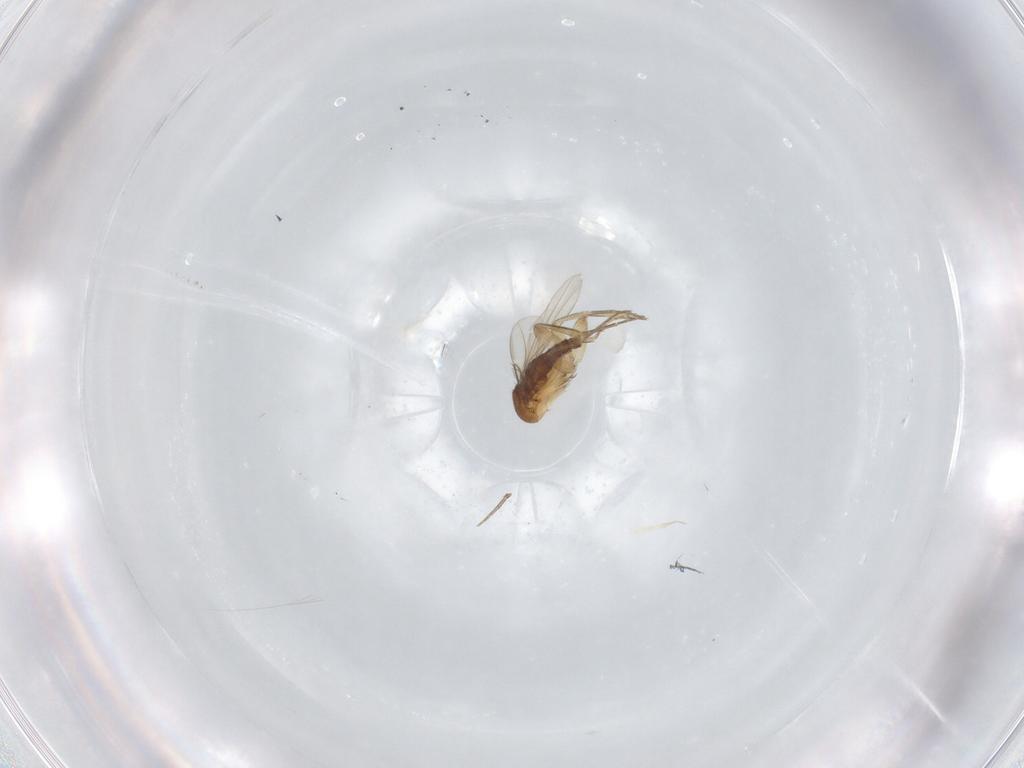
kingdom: Animalia
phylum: Arthropoda
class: Insecta
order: Diptera
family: Phoridae
